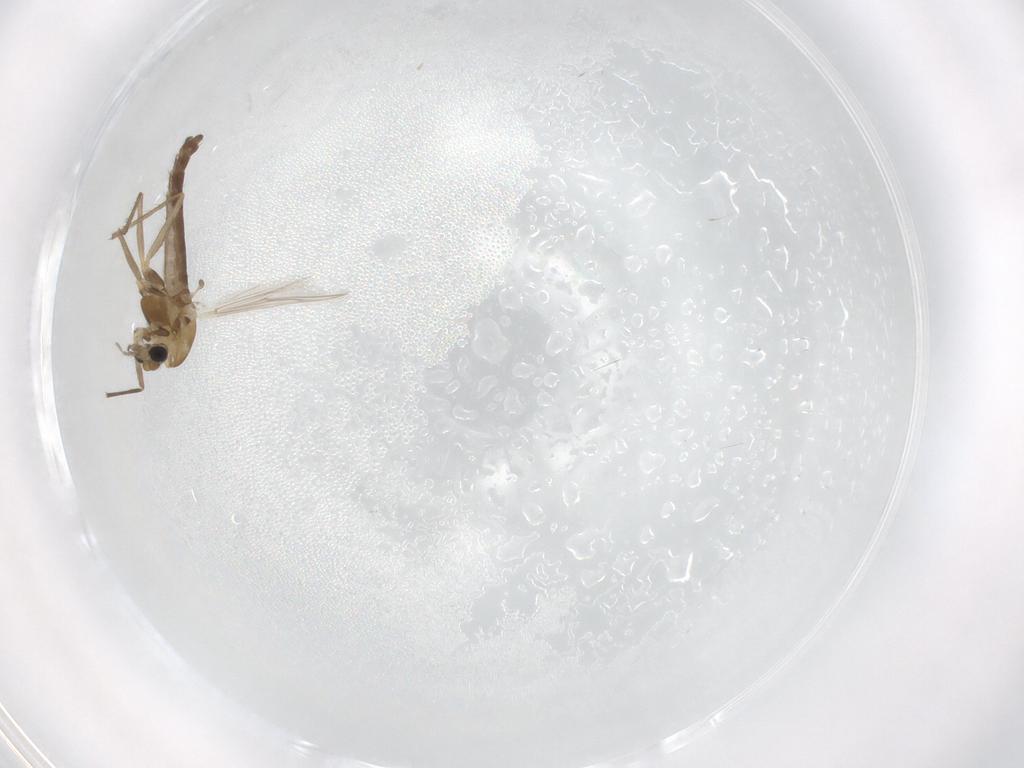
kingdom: Animalia
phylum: Arthropoda
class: Insecta
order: Diptera
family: Chironomidae
